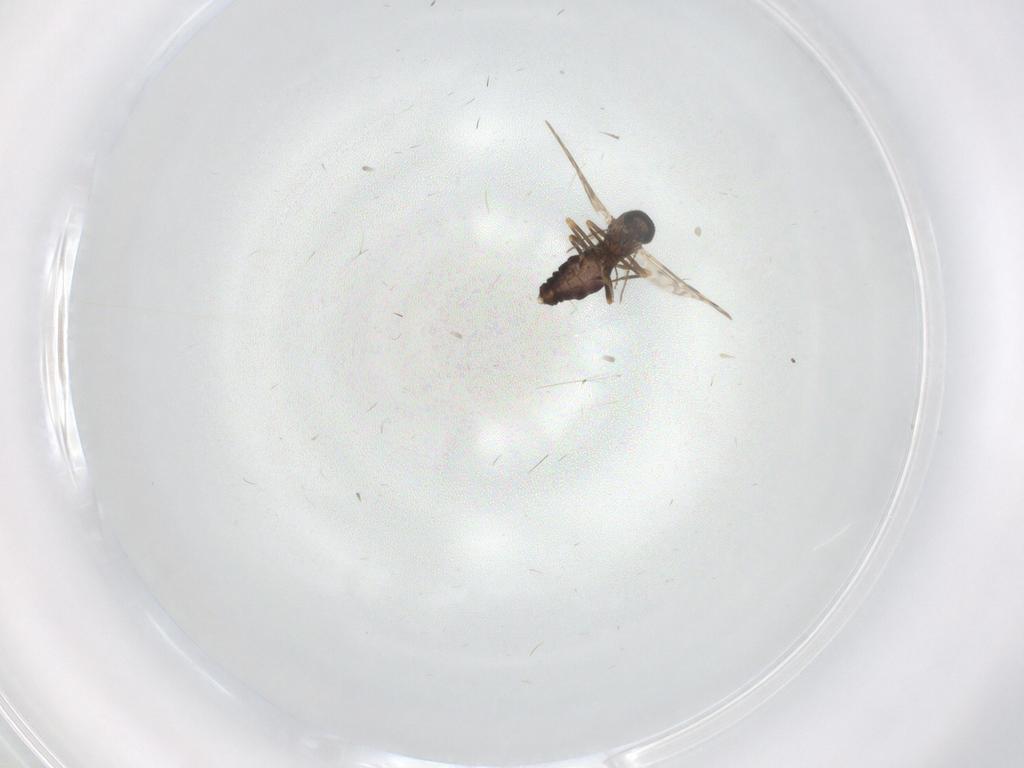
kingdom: Animalia
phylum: Arthropoda
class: Insecta
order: Diptera
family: Ceratopogonidae
